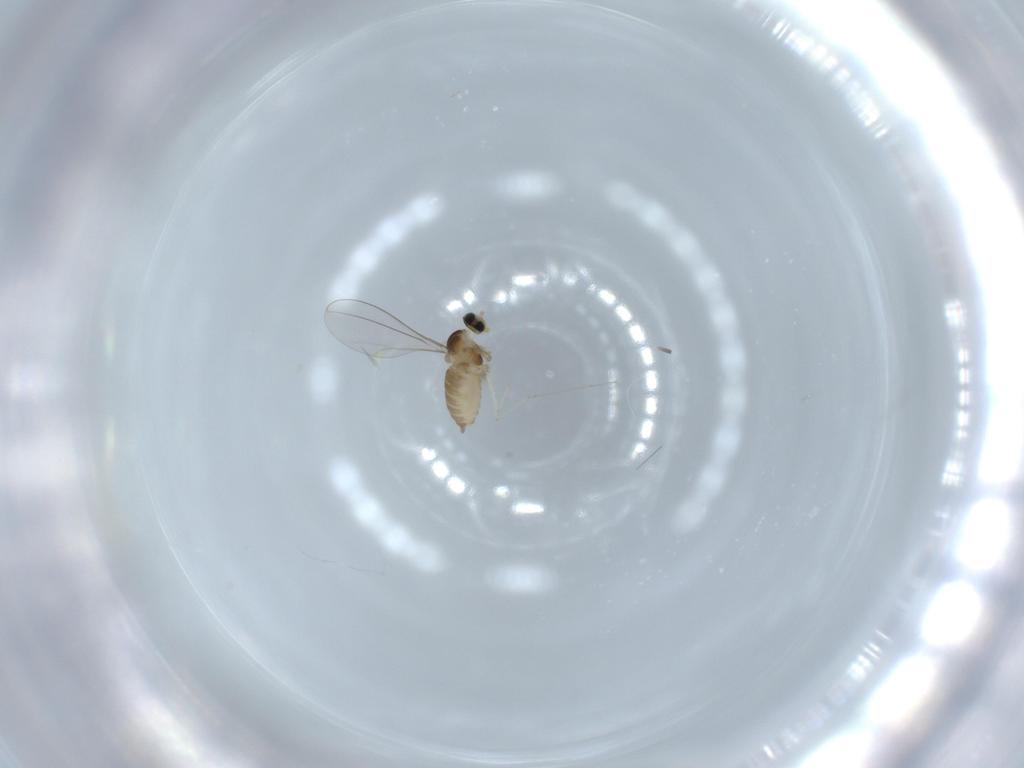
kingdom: Animalia
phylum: Arthropoda
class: Insecta
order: Diptera
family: Cecidomyiidae
